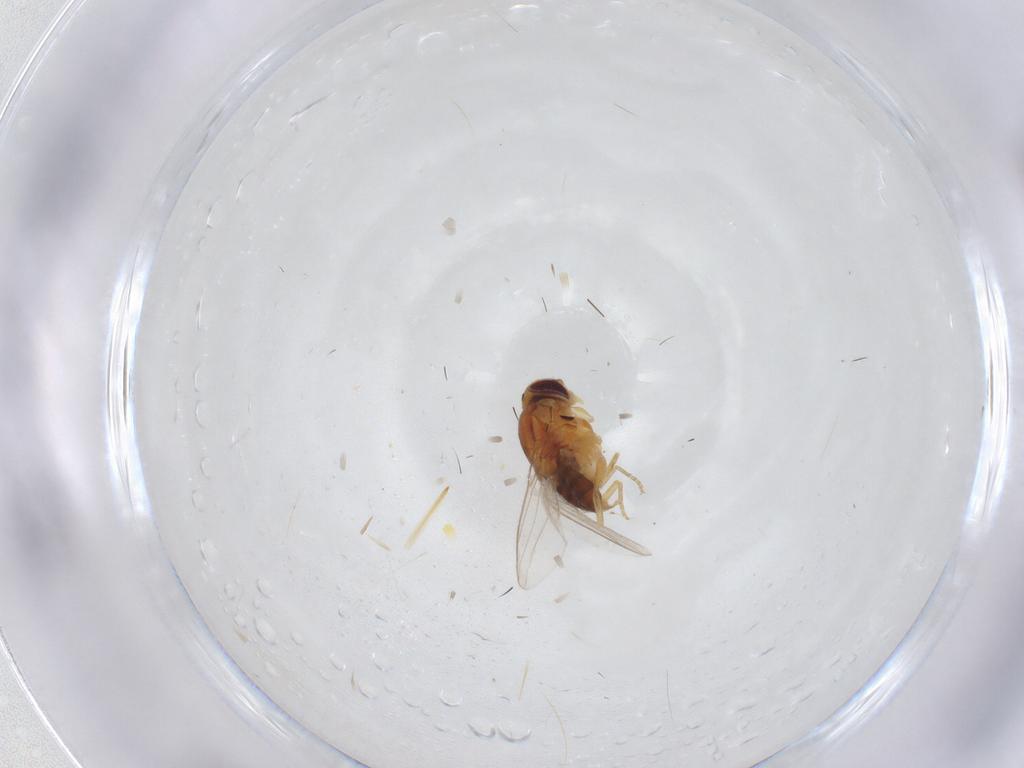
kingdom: Animalia
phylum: Arthropoda
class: Insecta
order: Diptera
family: Chloropidae
